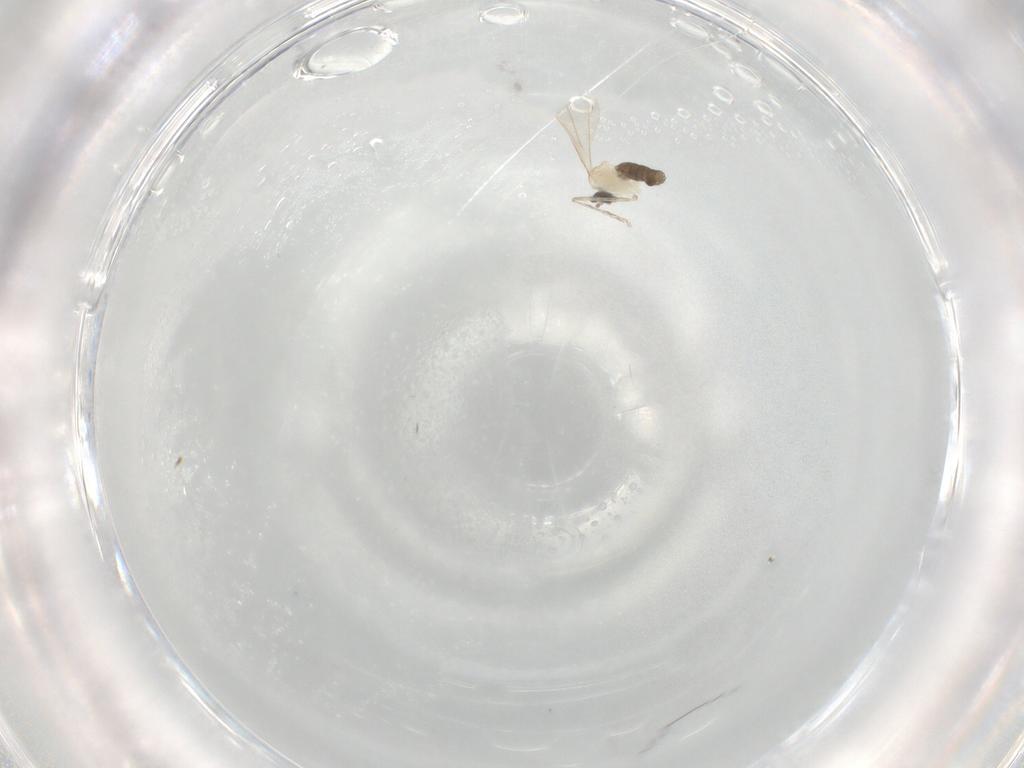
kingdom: Animalia
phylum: Arthropoda
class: Insecta
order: Diptera
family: Cecidomyiidae
